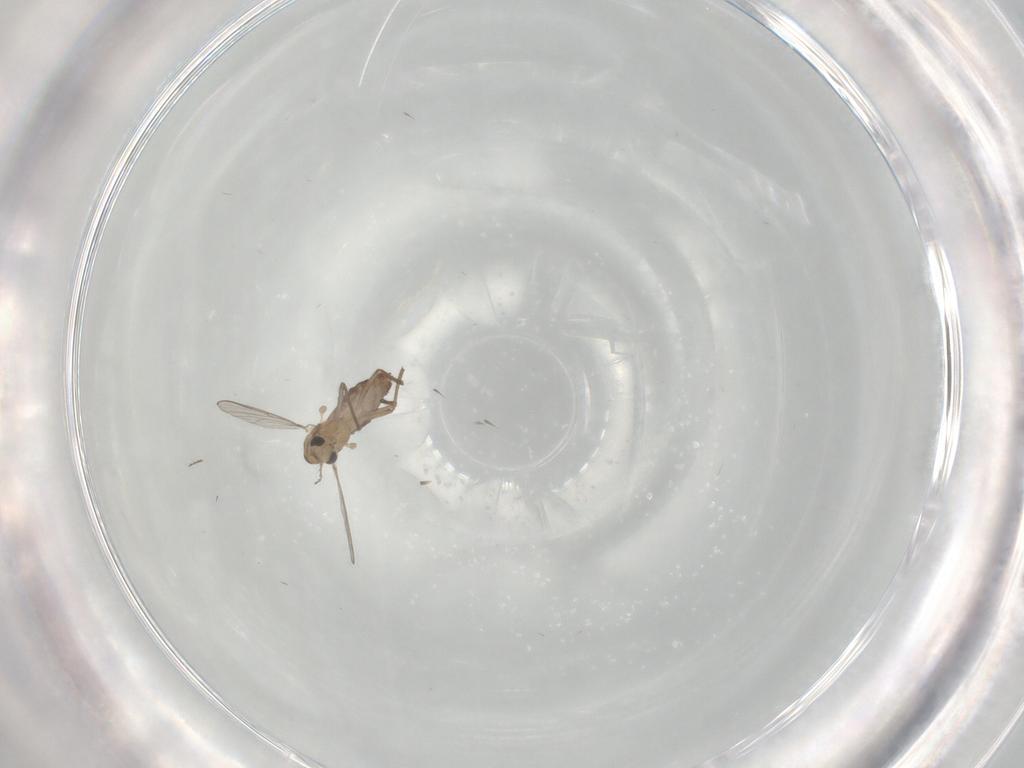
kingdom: Animalia
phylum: Arthropoda
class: Insecta
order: Diptera
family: Chironomidae
